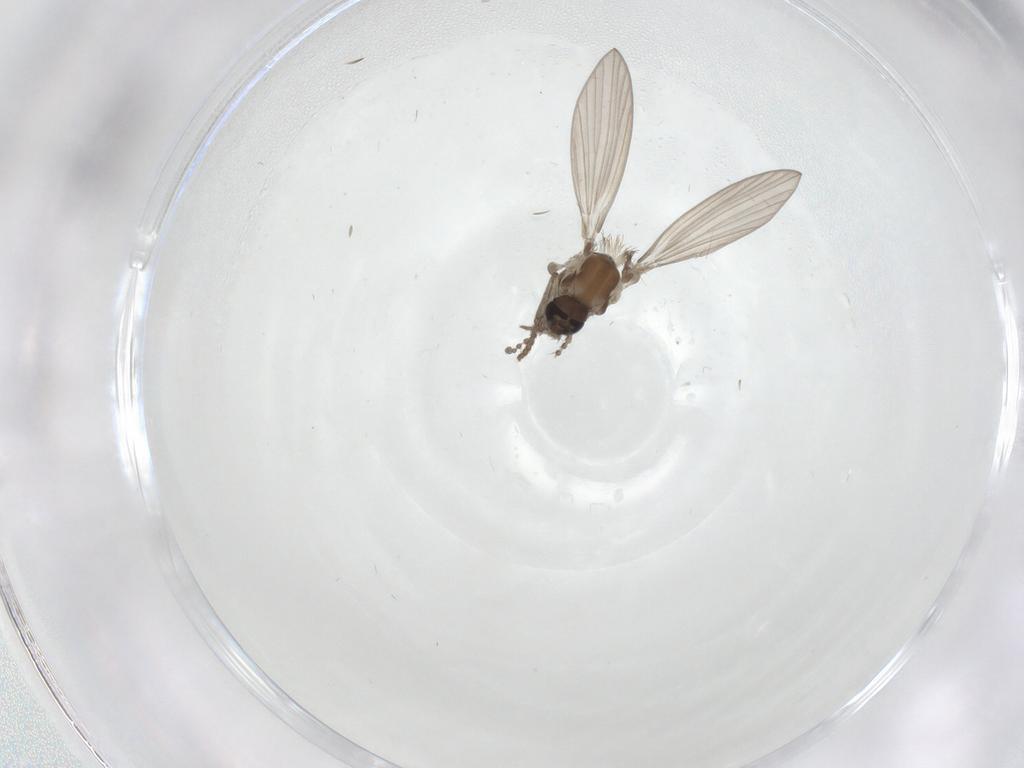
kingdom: Animalia
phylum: Arthropoda
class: Insecta
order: Diptera
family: Psychodidae
